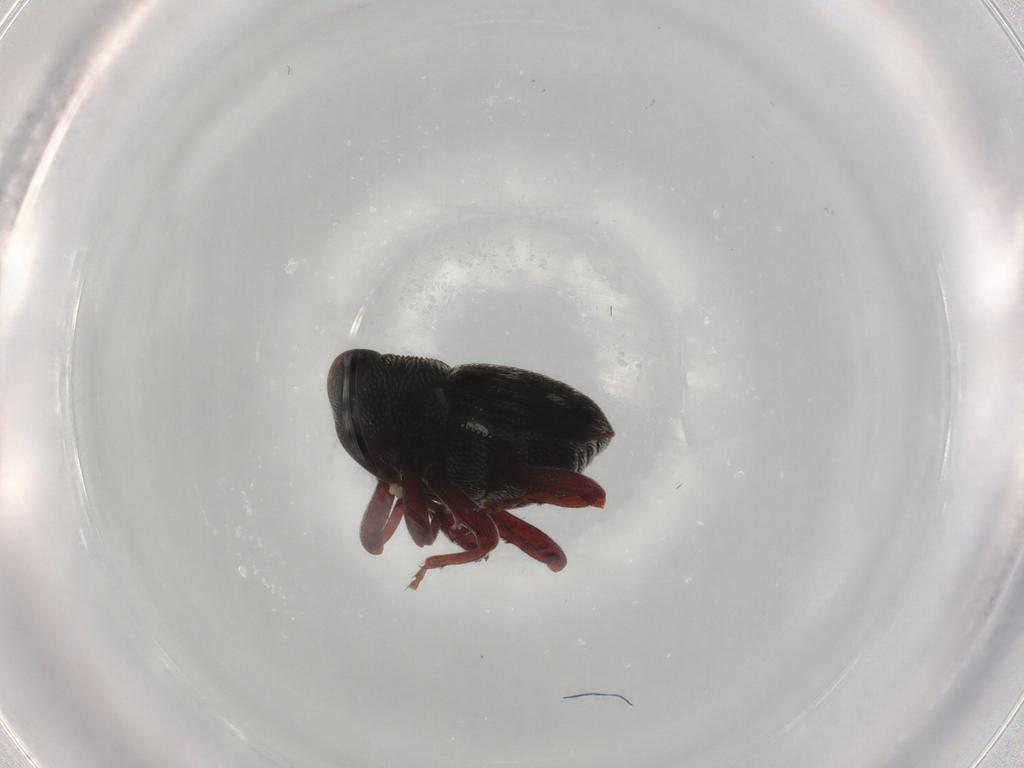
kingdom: Animalia
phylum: Arthropoda
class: Insecta
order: Coleoptera
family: Curculionidae
